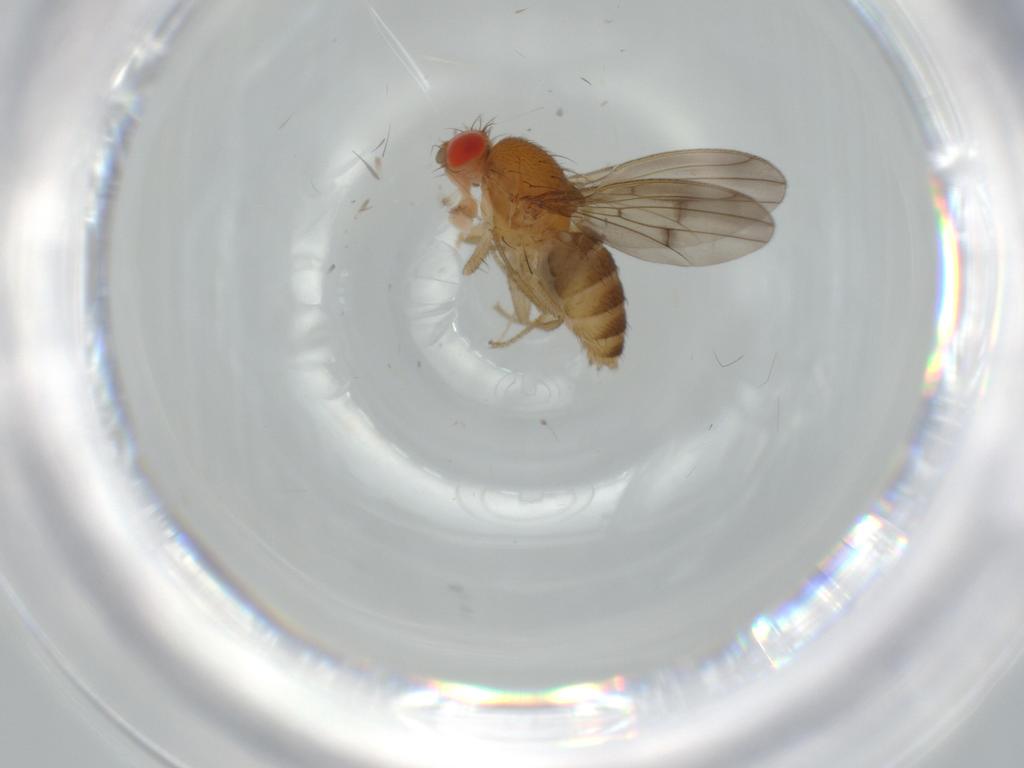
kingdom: Animalia
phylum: Arthropoda
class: Insecta
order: Diptera
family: Drosophilidae
